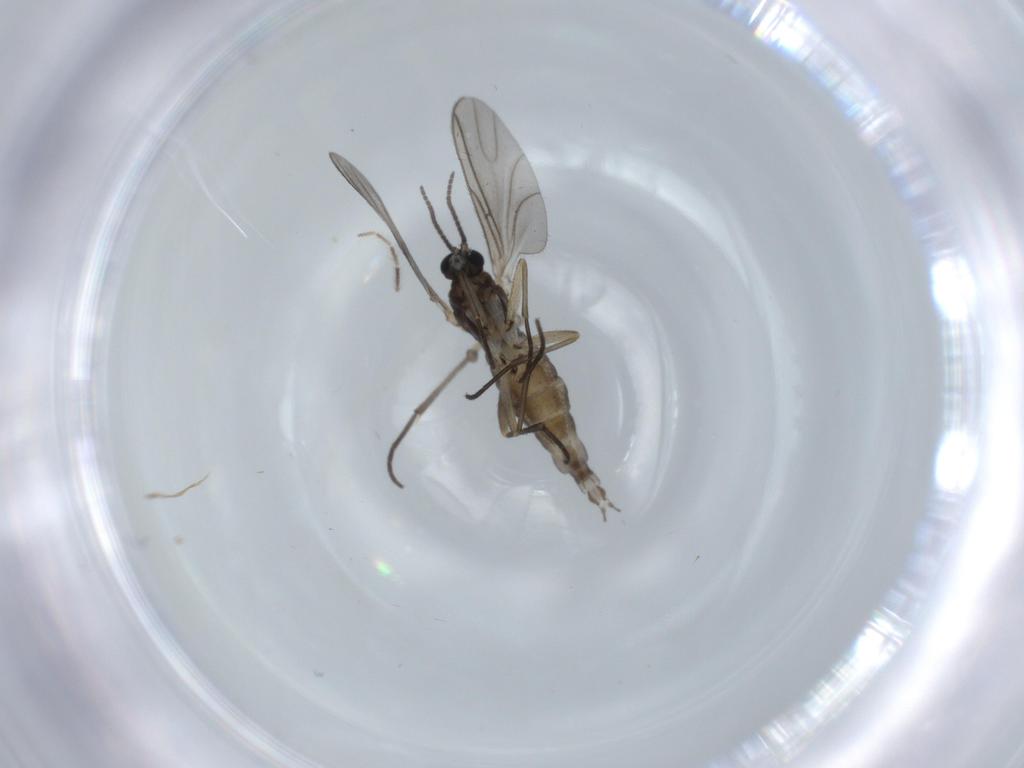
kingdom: Animalia
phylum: Arthropoda
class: Insecta
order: Diptera
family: Sciaridae
